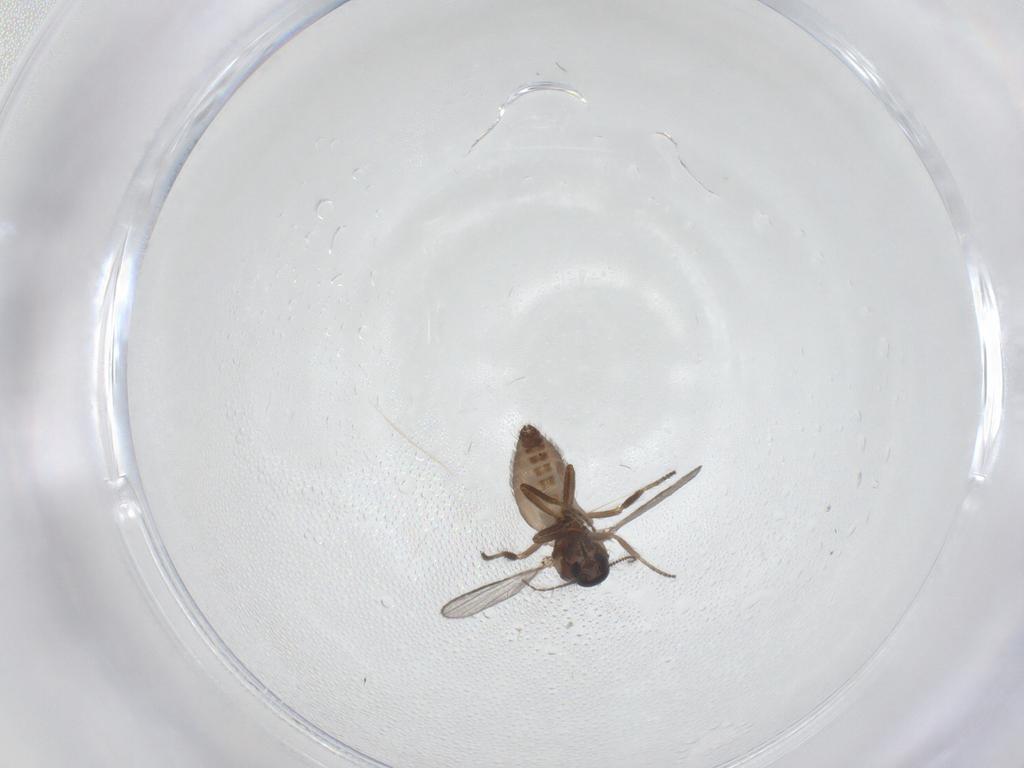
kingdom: Animalia
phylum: Arthropoda
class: Insecta
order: Diptera
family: Ceratopogonidae
